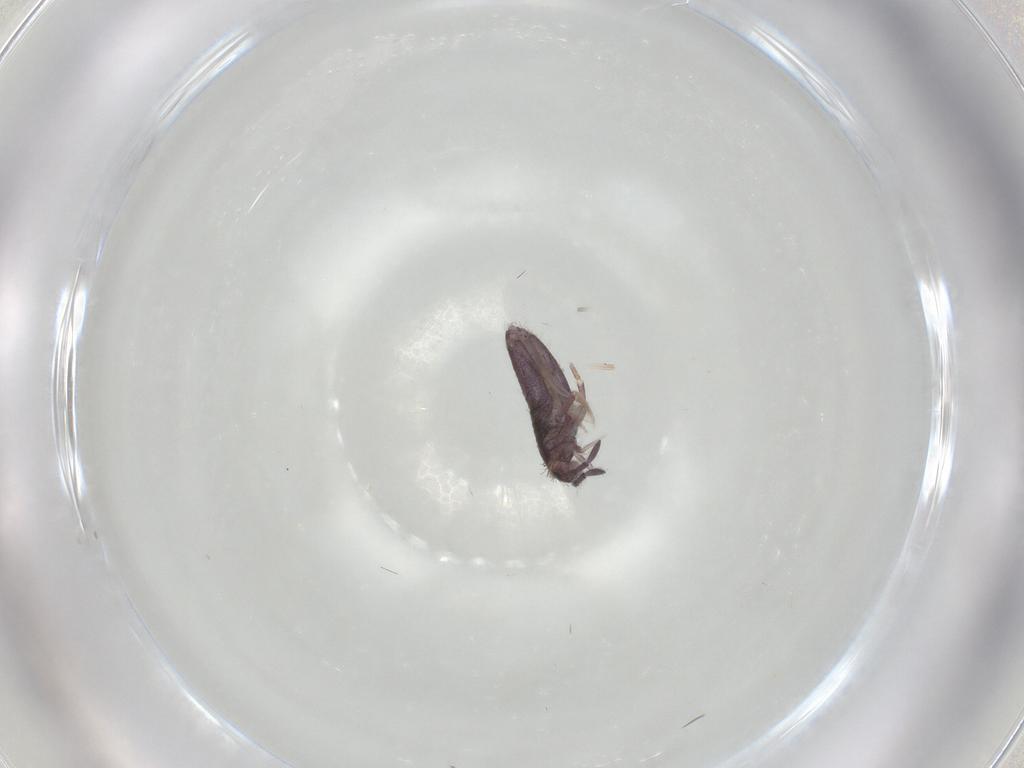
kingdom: Animalia
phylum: Arthropoda
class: Collembola
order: Entomobryomorpha
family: Entomobryidae
